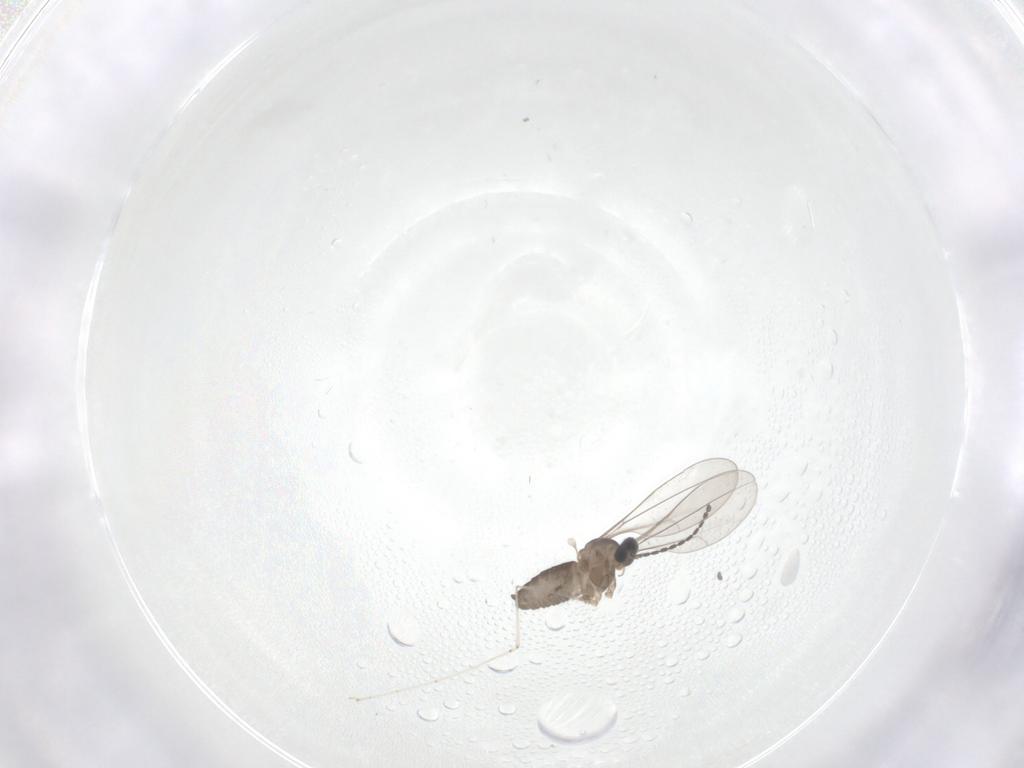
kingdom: Animalia
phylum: Arthropoda
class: Insecta
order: Diptera
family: Cecidomyiidae
